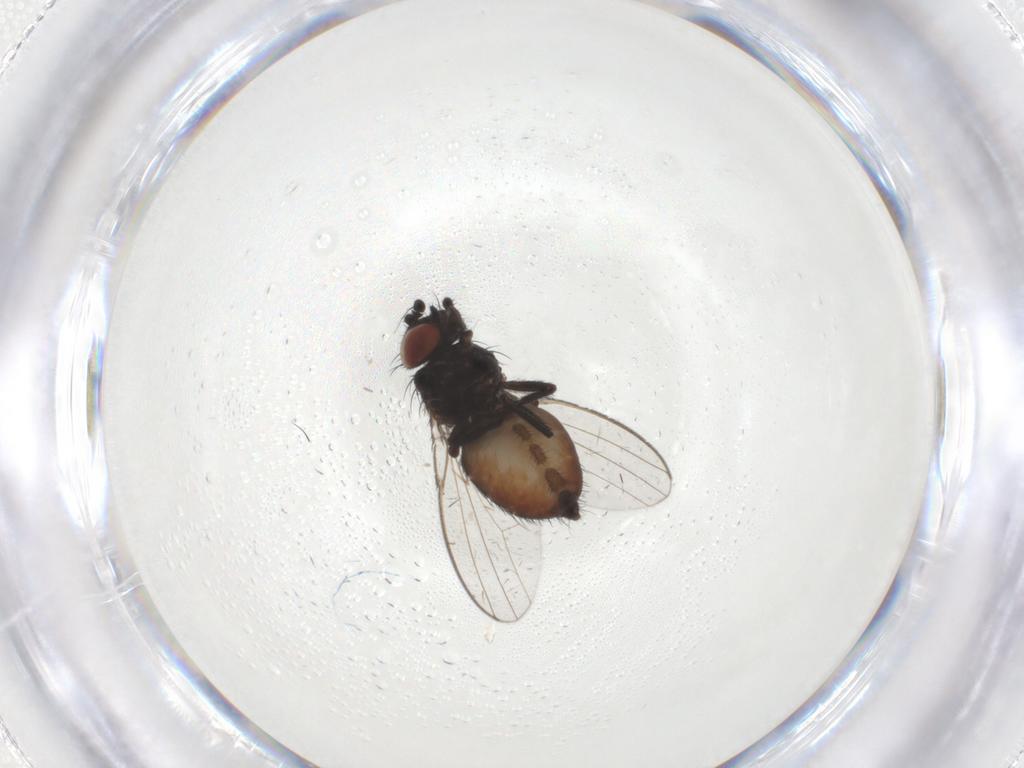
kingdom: Animalia
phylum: Arthropoda
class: Insecta
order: Diptera
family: Milichiidae
